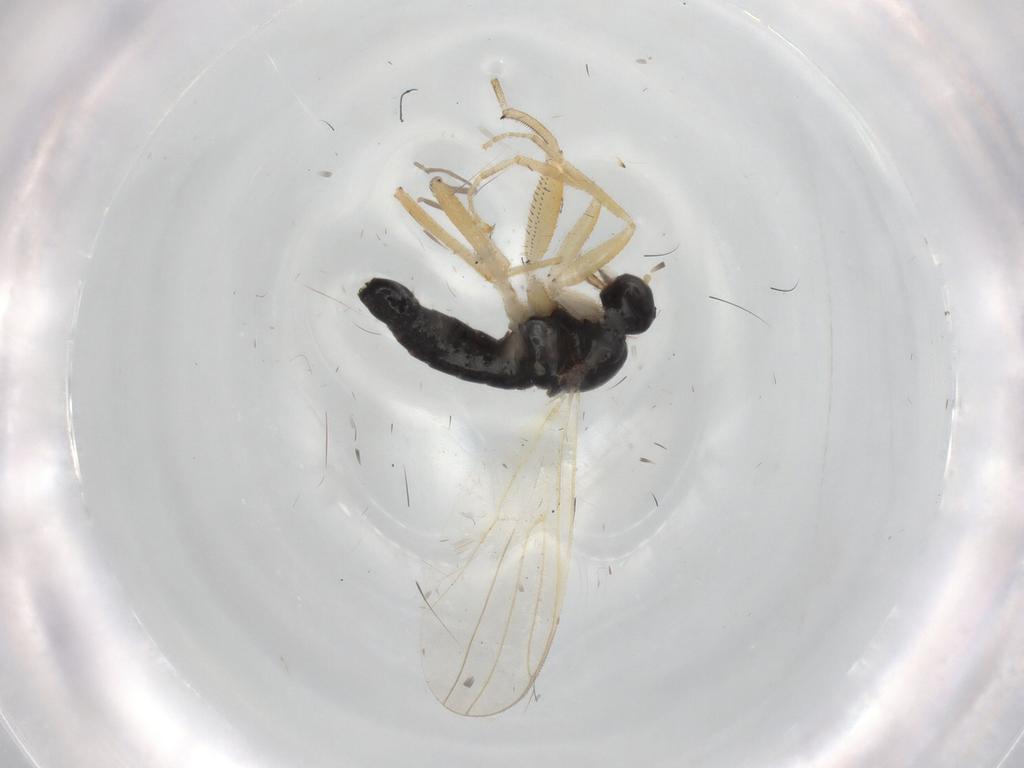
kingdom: Animalia
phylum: Arthropoda
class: Insecta
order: Diptera
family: Hybotidae
